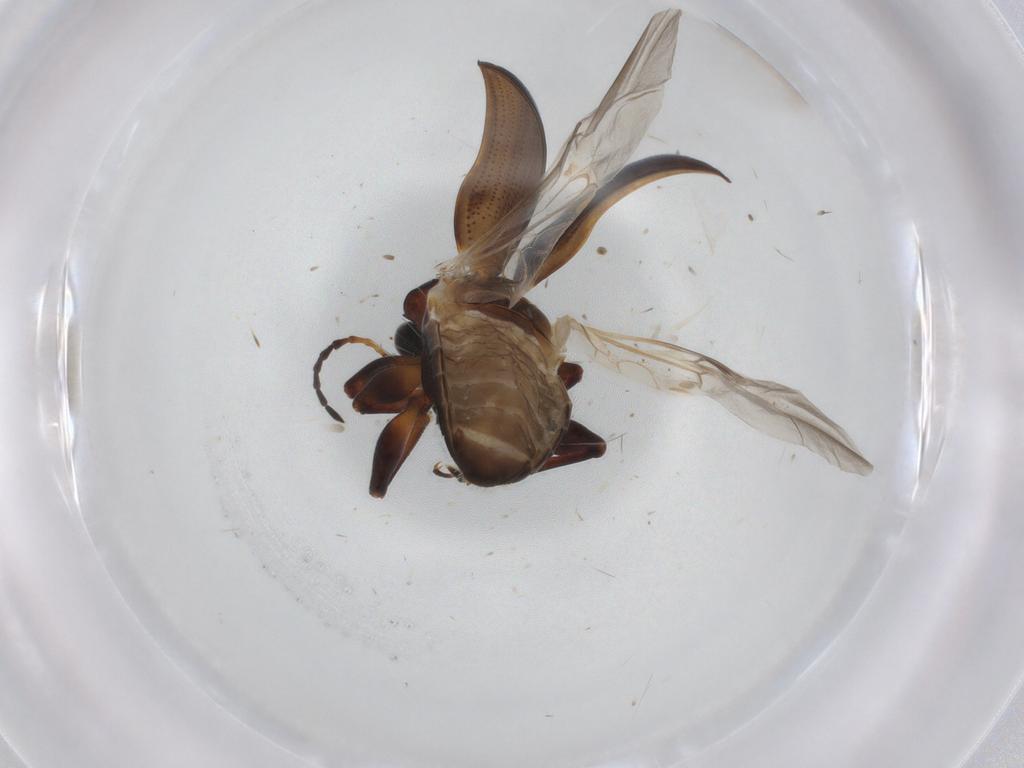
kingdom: Animalia
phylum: Arthropoda
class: Insecta
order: Coleoptera
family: Chrysomelidae
